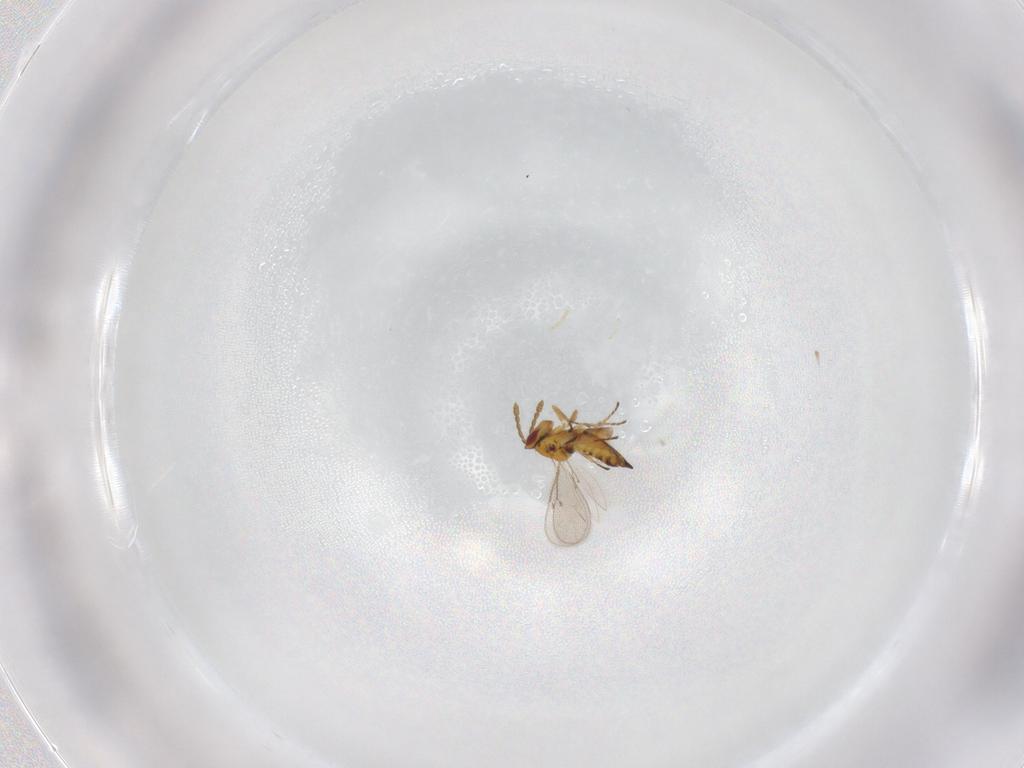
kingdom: Animalia
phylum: Arthropoda
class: Insecta
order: Hymenoptera
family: Eulophidae
